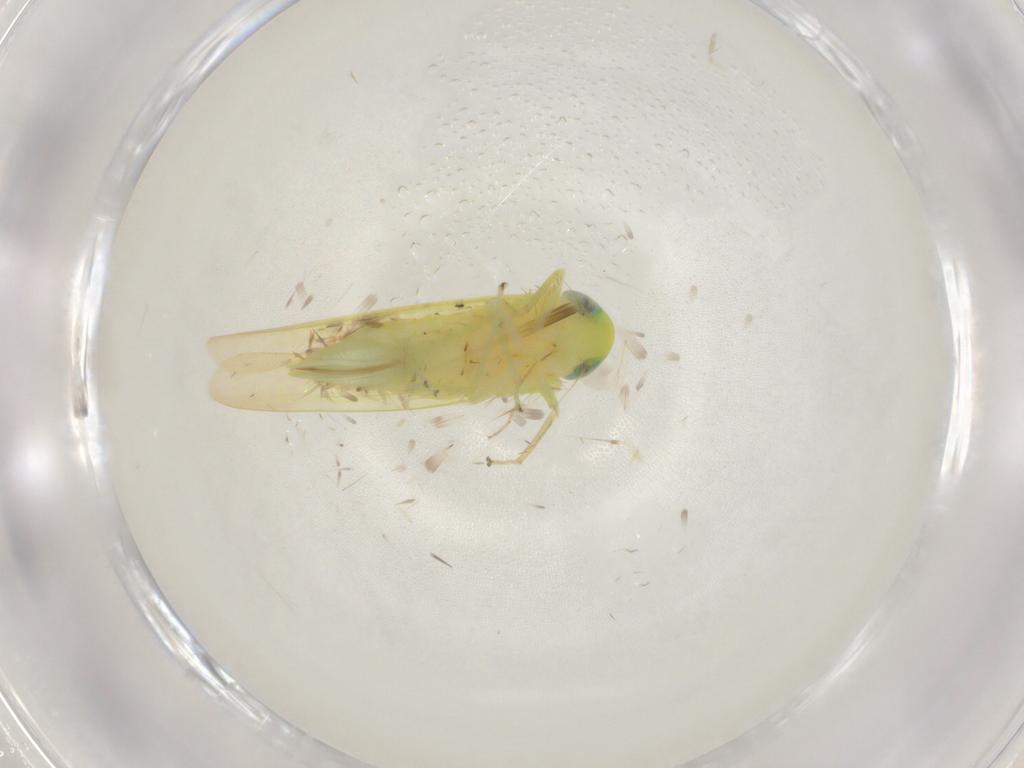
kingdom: Animalia
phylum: Arthropoda
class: Insecta
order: Hemiptera
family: Cicadellidae
